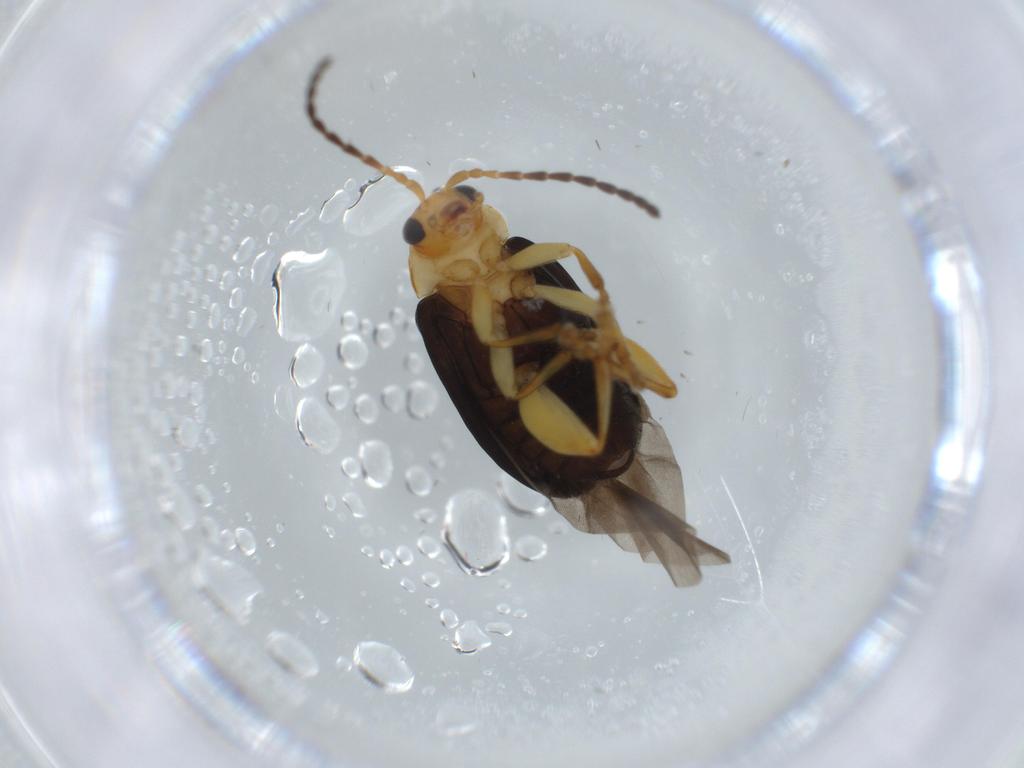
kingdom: Animalia
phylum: Arthropoda
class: Insecta
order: Coleoptera
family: Chrysomelidae
